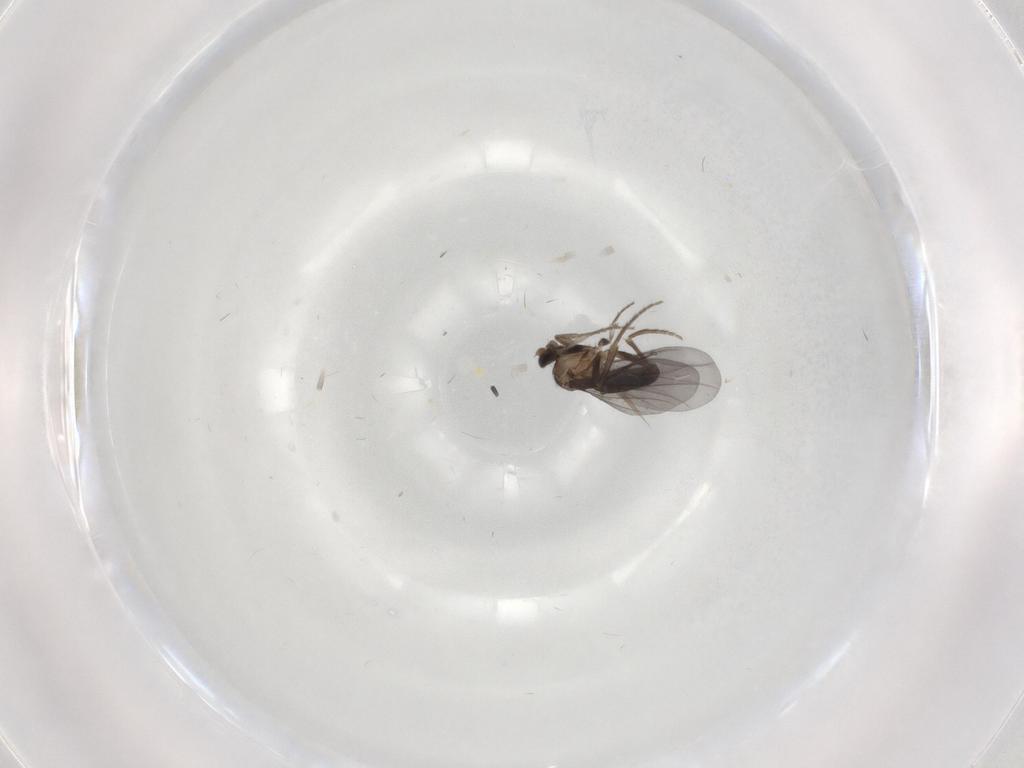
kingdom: Animalia
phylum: Arthropoda
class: Insecta
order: Diptera
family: Phoridae
